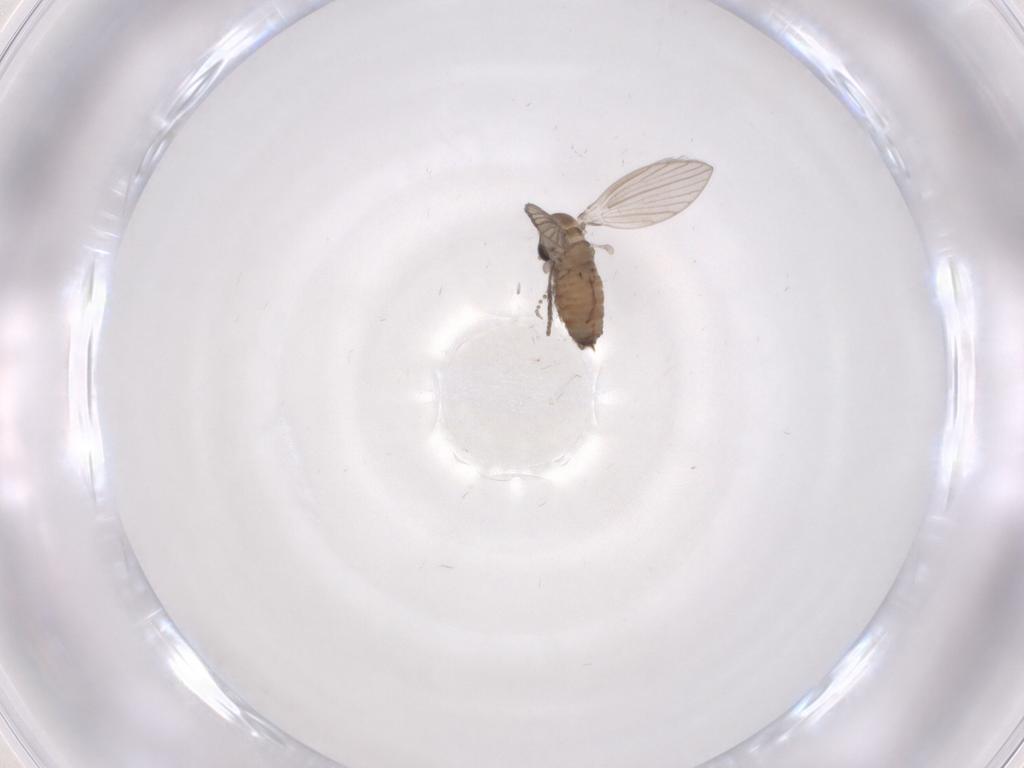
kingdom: Animalia
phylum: Arthropoda
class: Insecta
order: Diptera
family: Psychodidae
